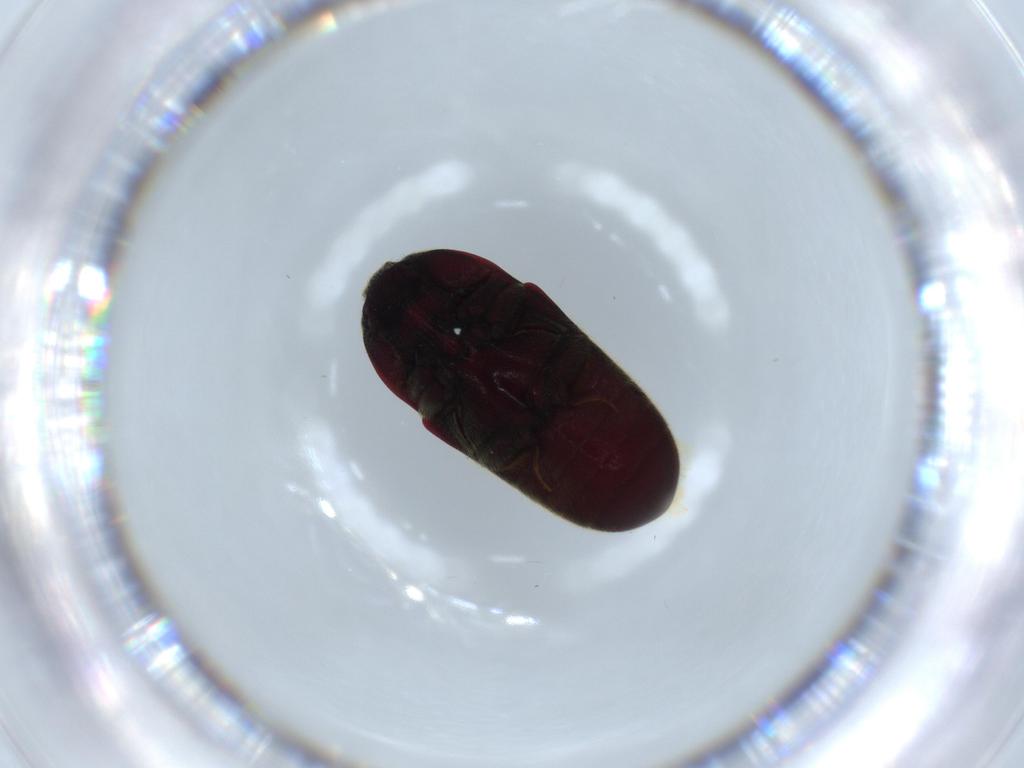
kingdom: Animalia
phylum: Arthropoda
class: Insecta
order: Coleoptera
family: Throscidae
